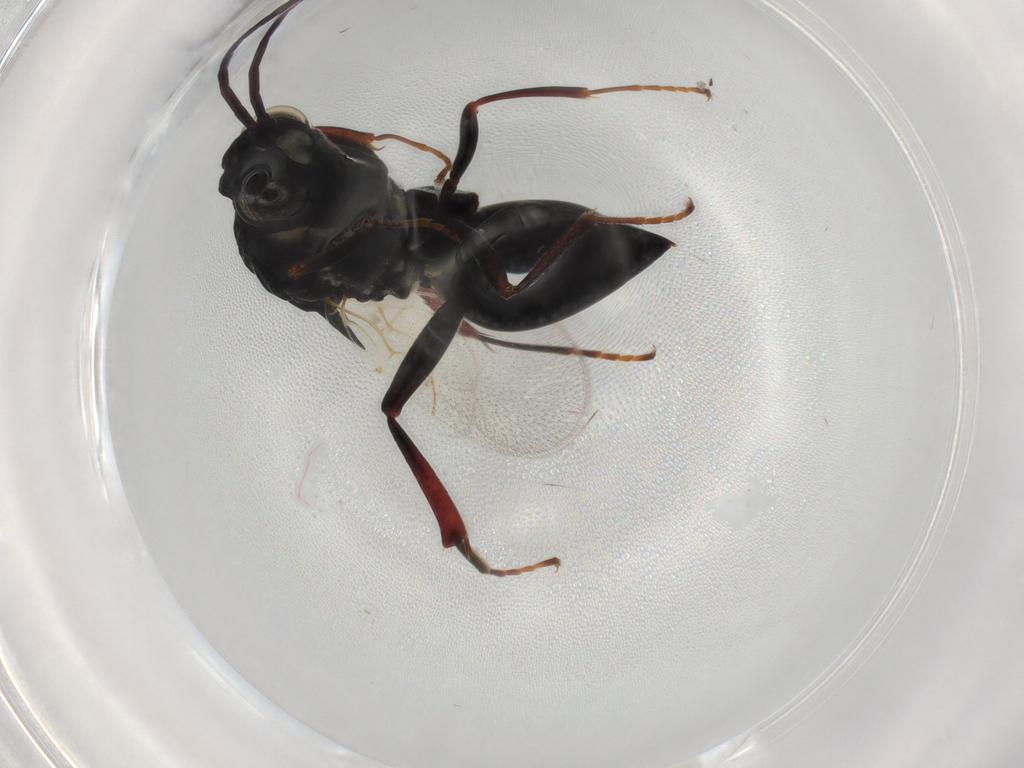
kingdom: Animalia
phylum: Arthropoda
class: Insecta
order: Hymenoptera
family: Figitidae
